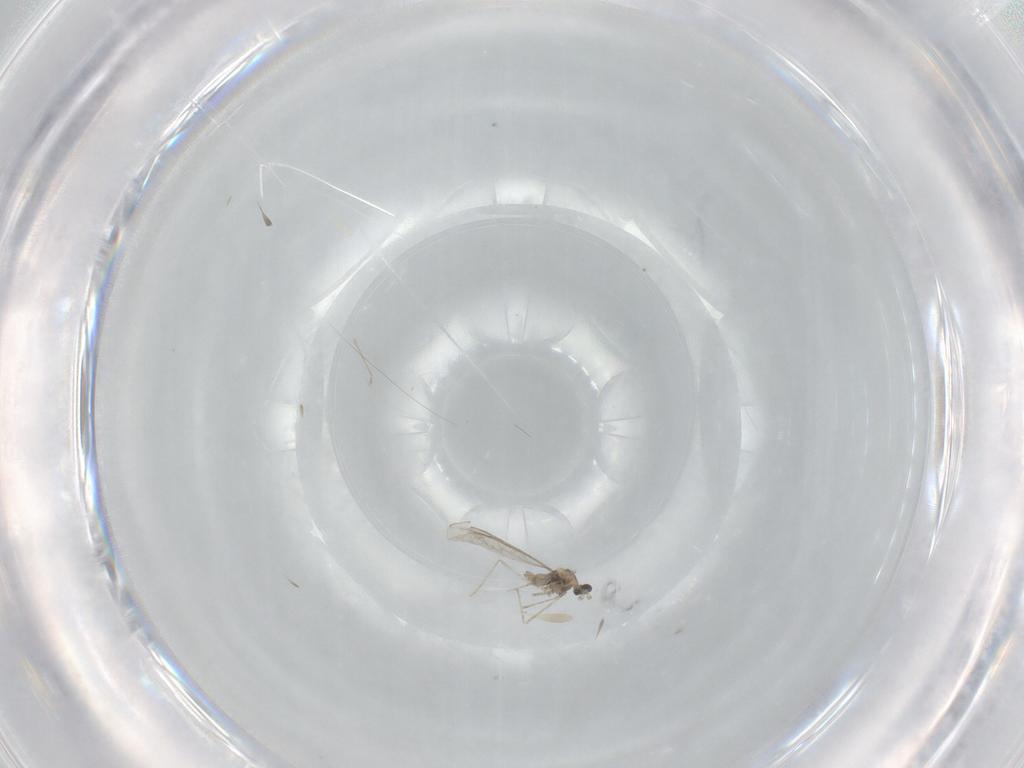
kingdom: Animalia
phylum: Arthropoda
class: Insecta
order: Diptera
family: Cecidomyiidae
